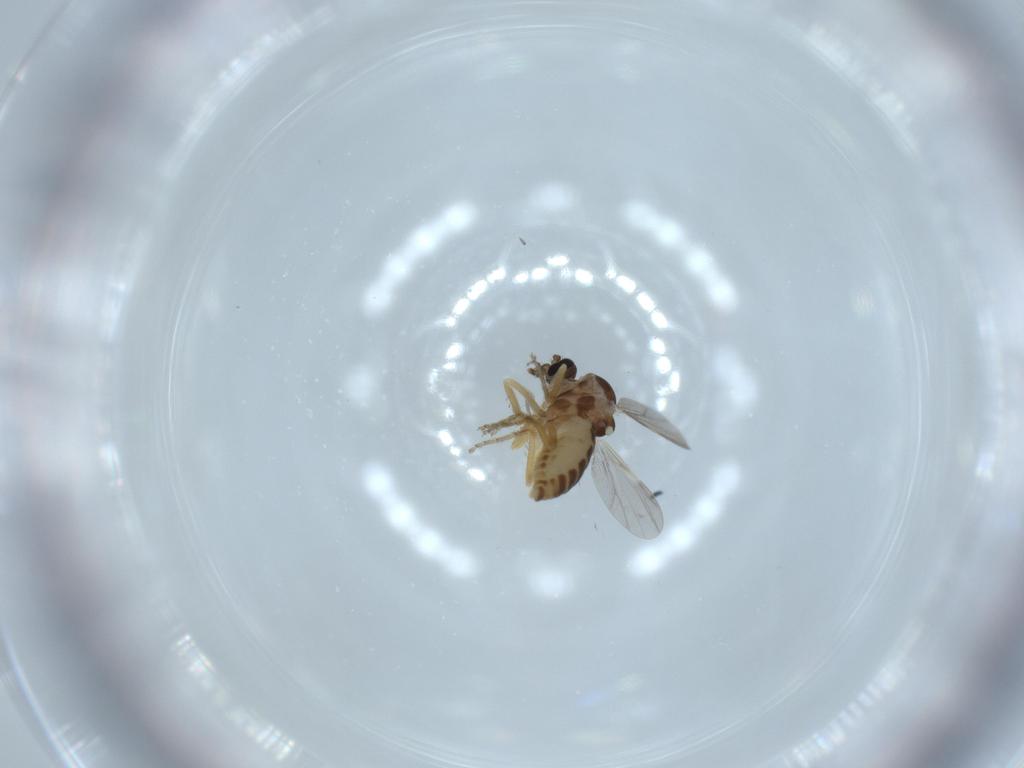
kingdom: Animalia
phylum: Arthropoda
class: Insecta
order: Diptera
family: Ceratopogonidae
